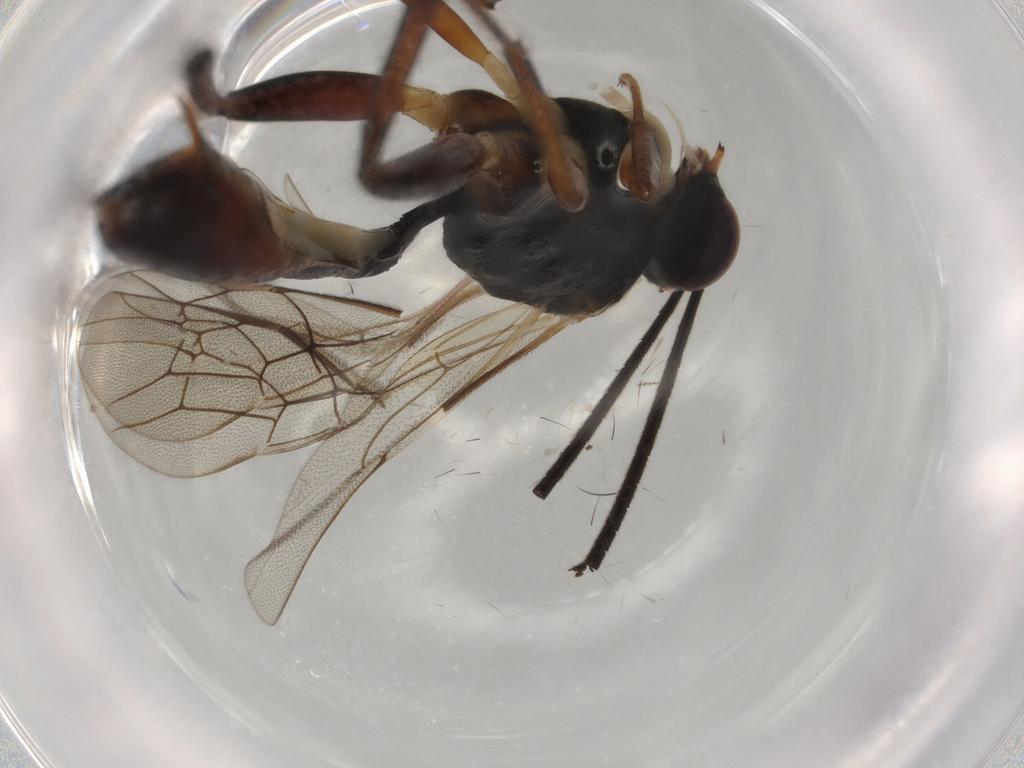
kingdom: Animalia
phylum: Arthropoda
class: Insecta
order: Hymenoptera
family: Ichneumonidae
